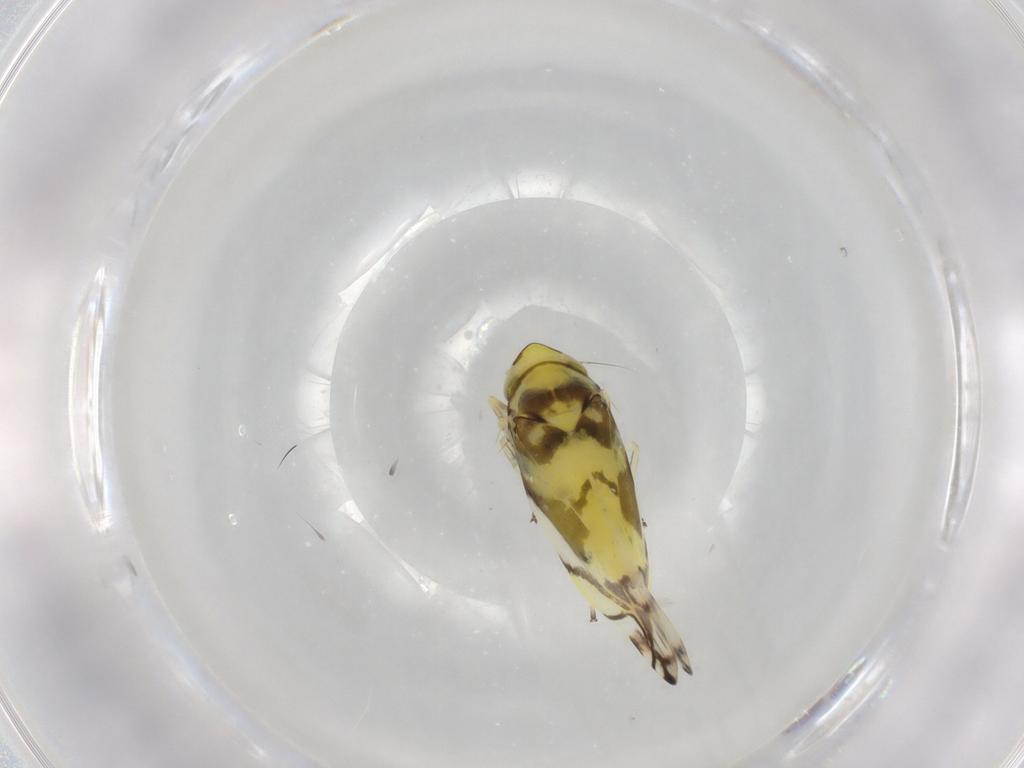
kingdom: Animalia
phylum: Arthropoda
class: Insecta
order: Hemiptera
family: Cicadellidae
